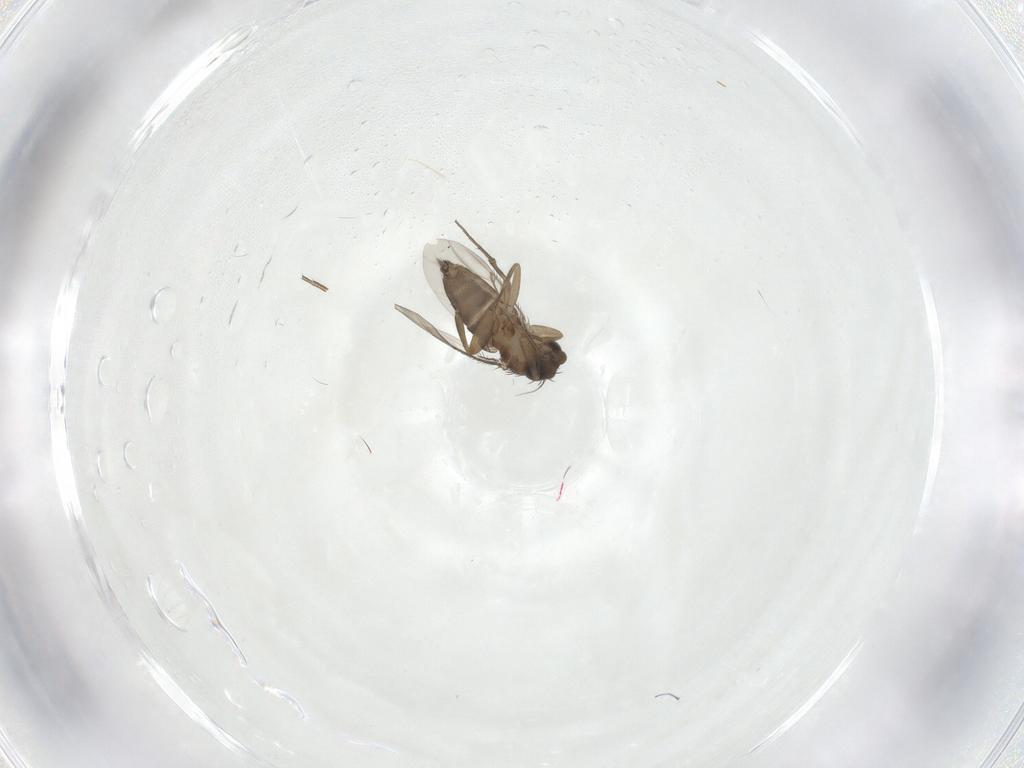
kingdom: Animalia
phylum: Arthropoda
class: Insecta
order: Diptera
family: Phoridae
